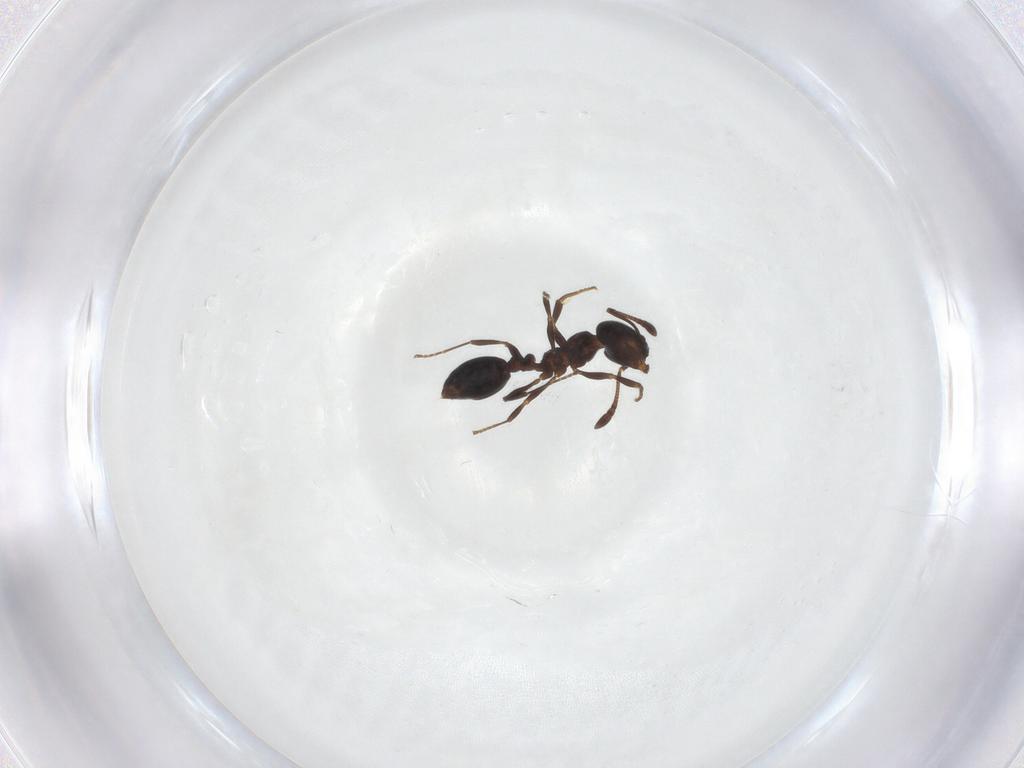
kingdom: Animalia
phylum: Arthropoda
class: Insecta
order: Hymenoptera
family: Formicidae
